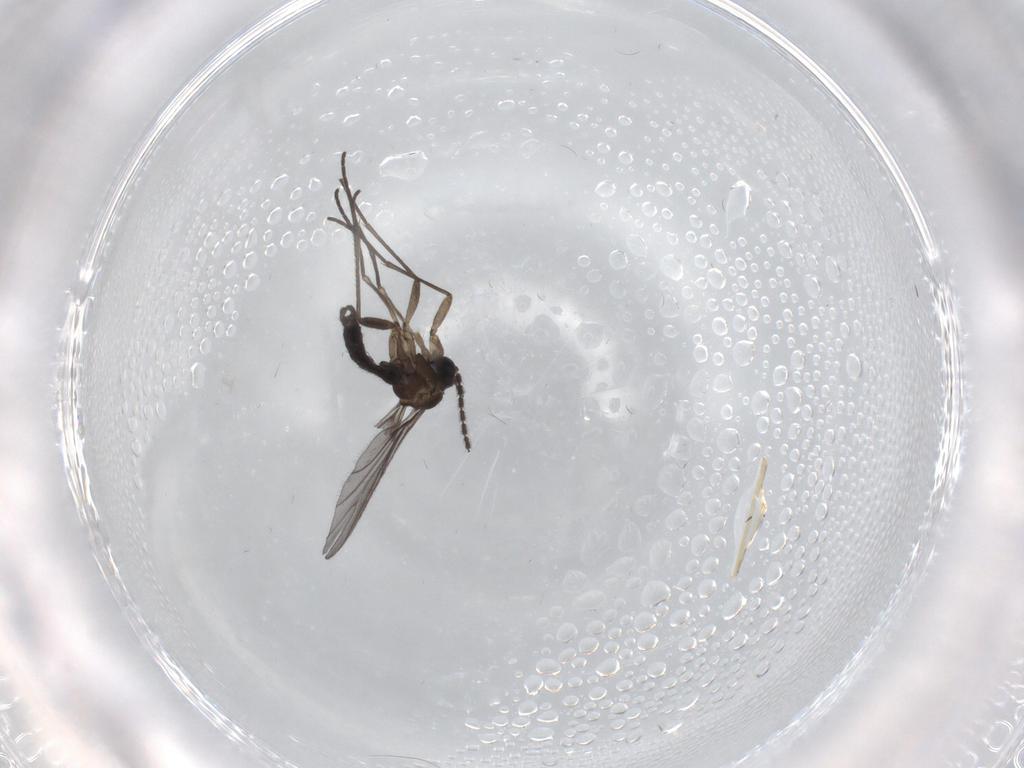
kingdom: Animalia
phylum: Arthropoda
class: Insecta
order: Diptera
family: Sciaridae
